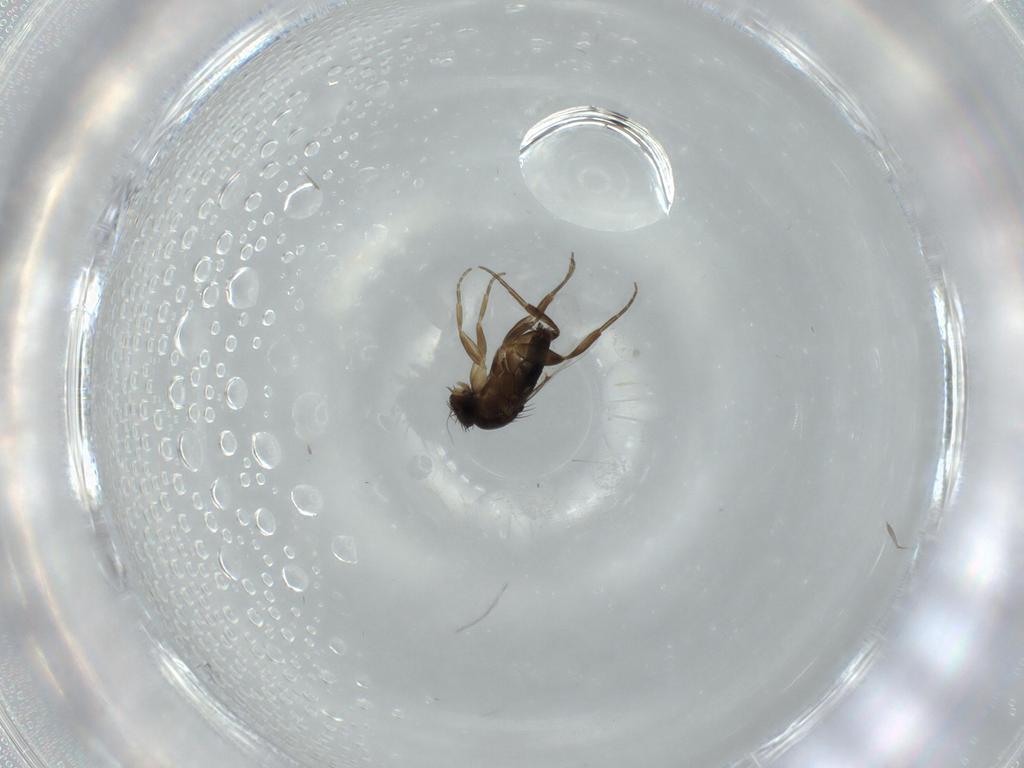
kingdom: Animalia
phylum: Arthropoda
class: Insecta
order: Diptera
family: Phoridae
